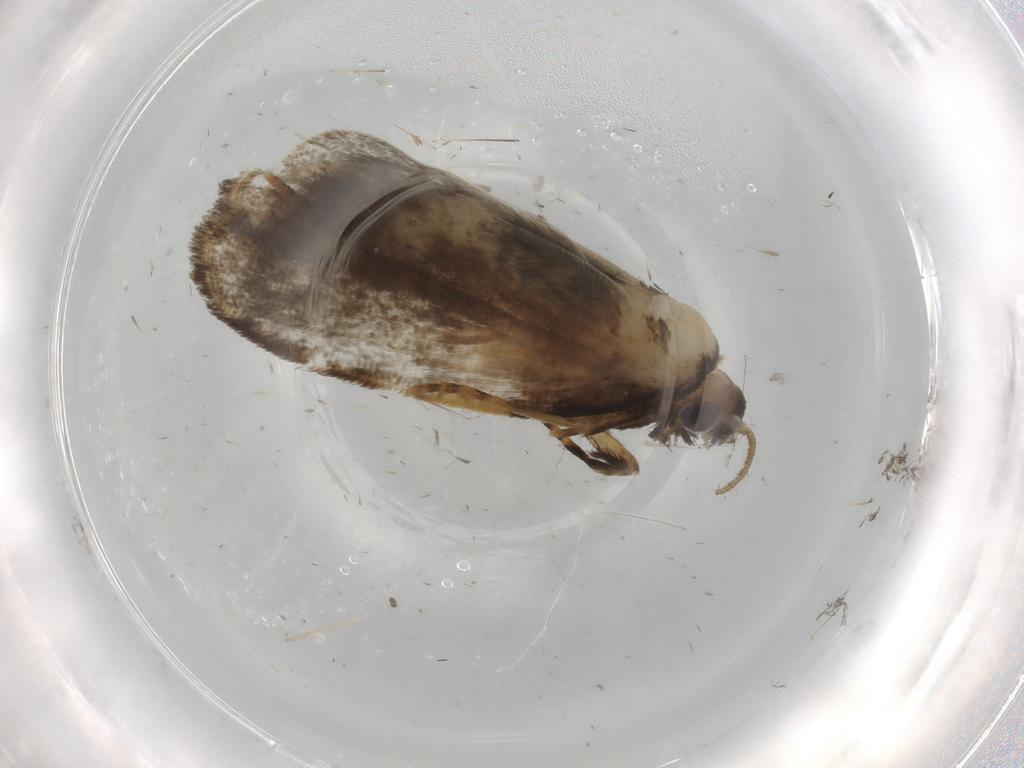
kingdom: Animalia
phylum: Arthropoda
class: Insecta
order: Lepidoptera
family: Psychidae
